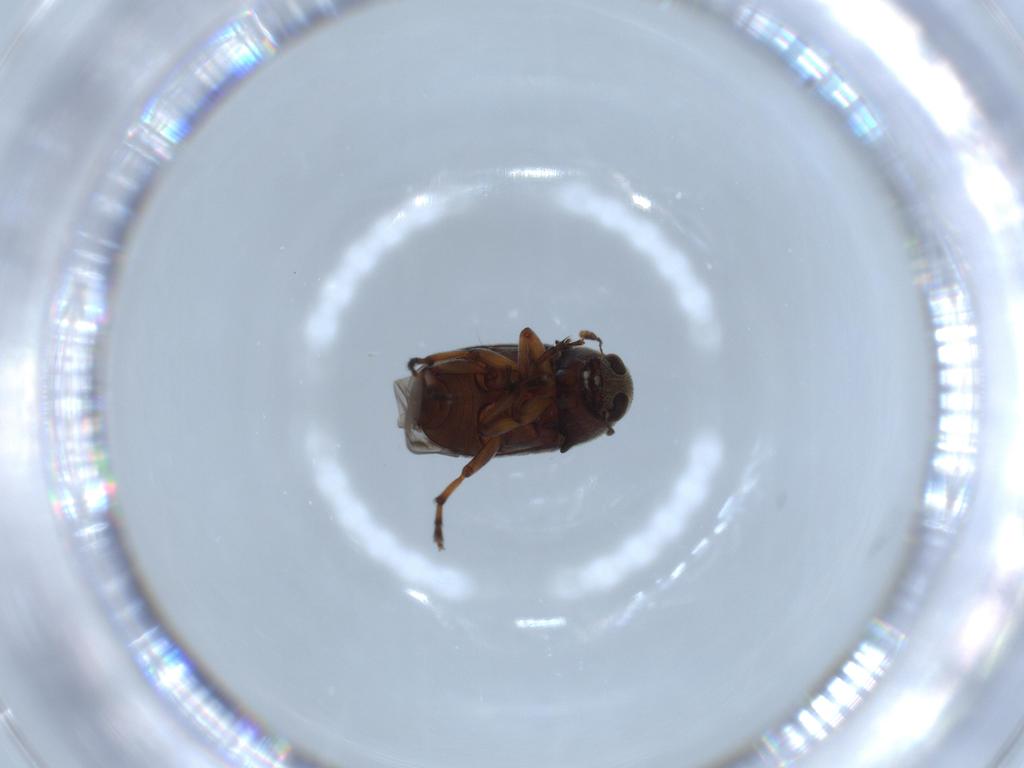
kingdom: Animalia
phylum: Arthropoda
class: Insecta
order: Coleoptera
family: Anthribidae
